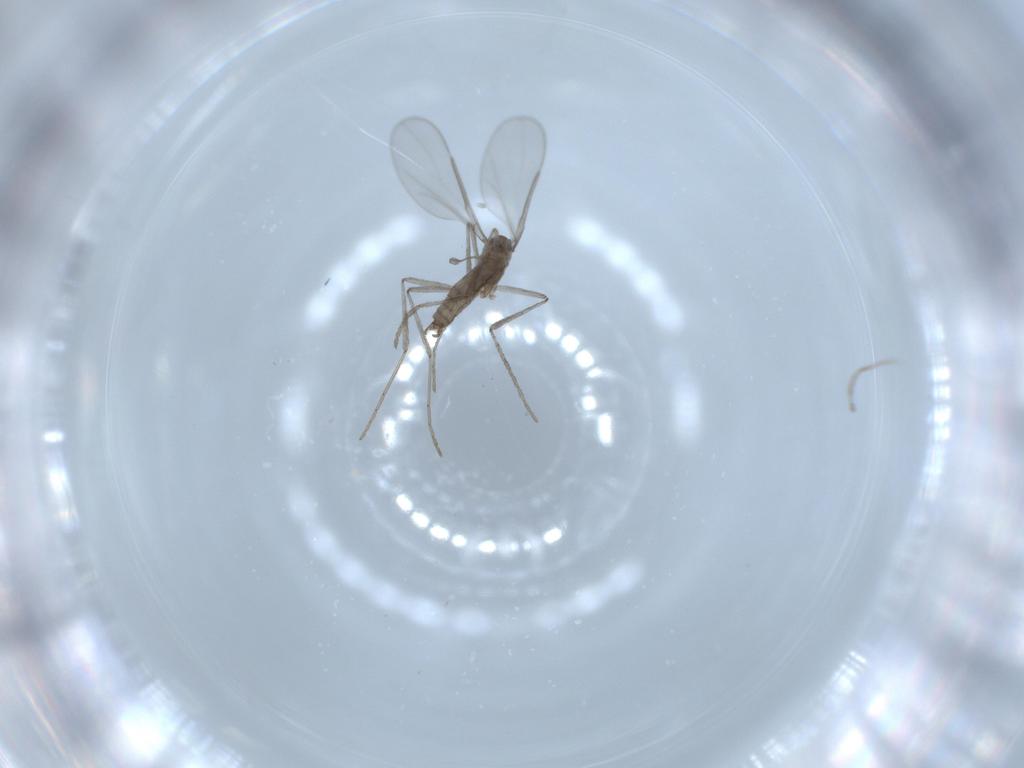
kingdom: Animalia
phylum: Arthropoda
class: Insecta
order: Diptera
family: Cecidomyiidae
